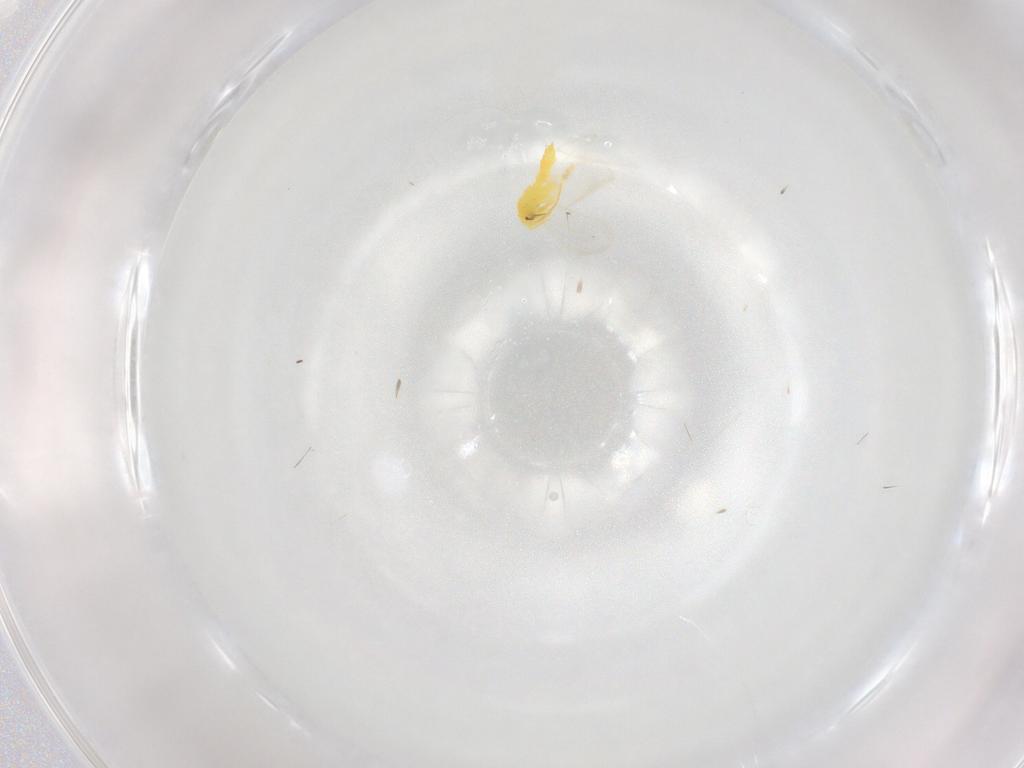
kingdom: Animalia
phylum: Arthropoda
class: Insecta
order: Hemiptera
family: Aleyrodidae
